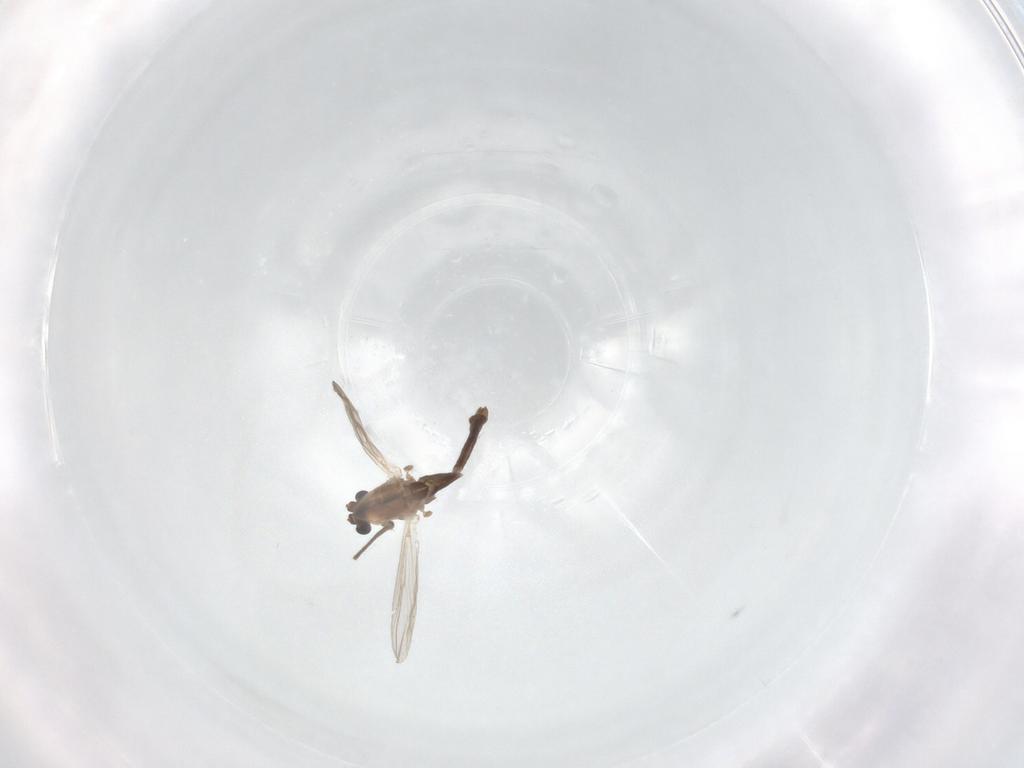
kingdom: Animalia
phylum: Arthropoda
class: Insecta
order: Diptera
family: Chironomidae
